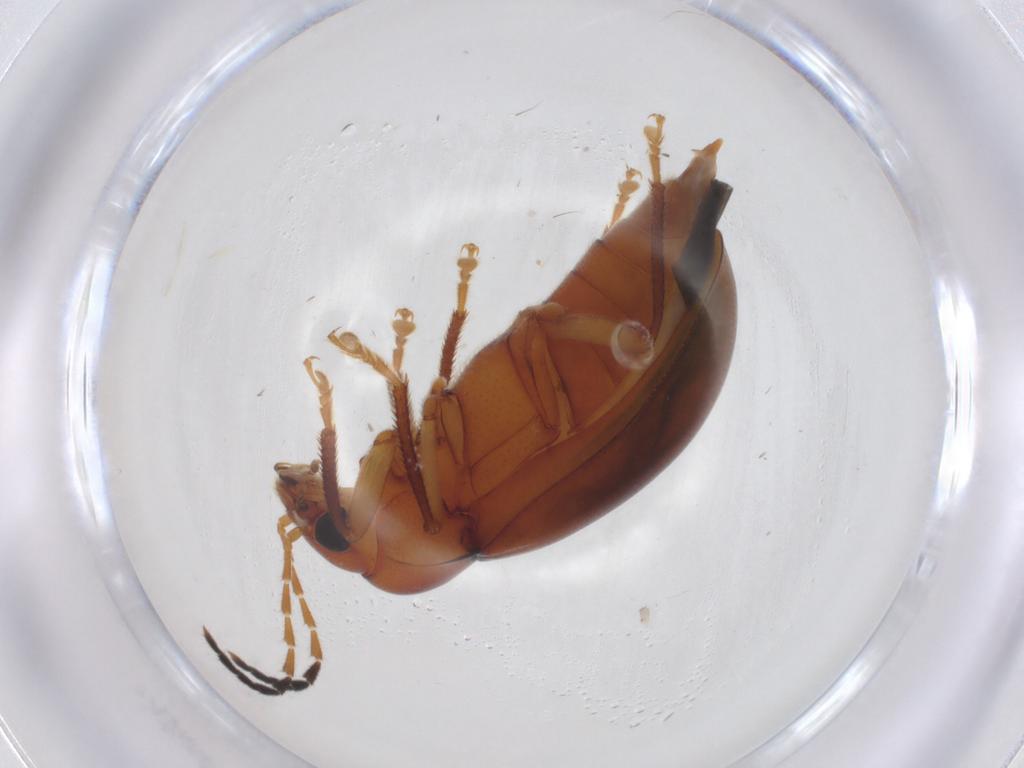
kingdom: Animalia
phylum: Arthropoda
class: Insecta
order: Coleoptera
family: Ptilodactylidae
